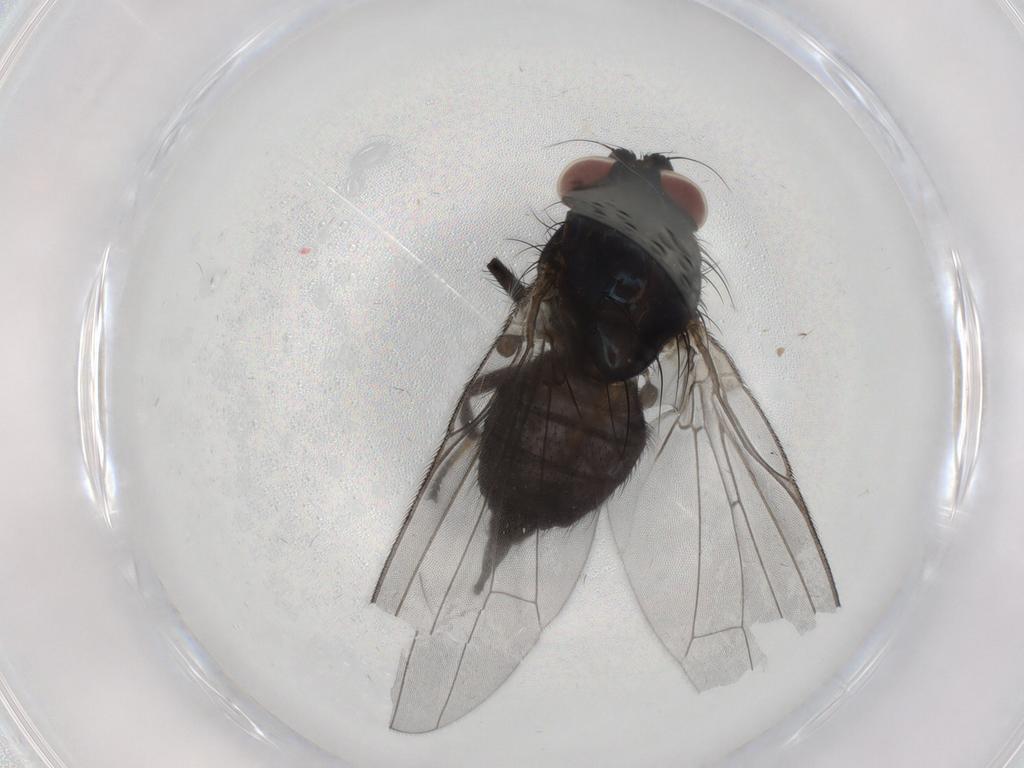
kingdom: Animalia
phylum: Arthropoda
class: Insecta
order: Diptera
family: Lonchaeidae
